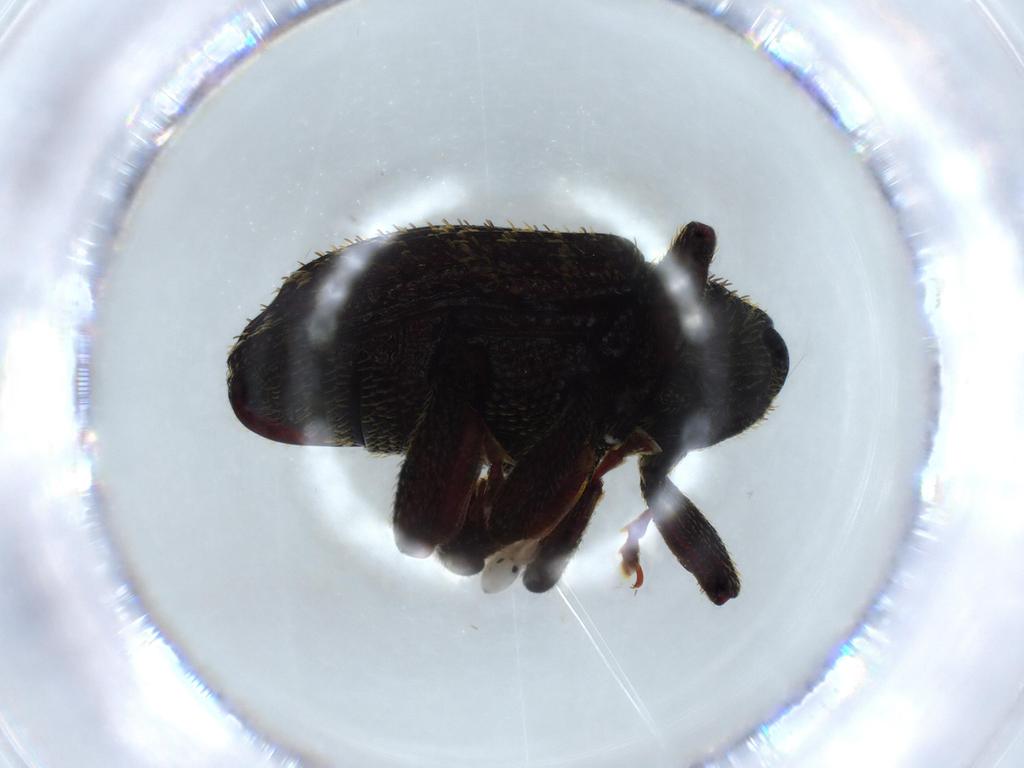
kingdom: Animalia
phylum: Arthropoda
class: Insecta
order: Coleoptera
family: Curculionidae
